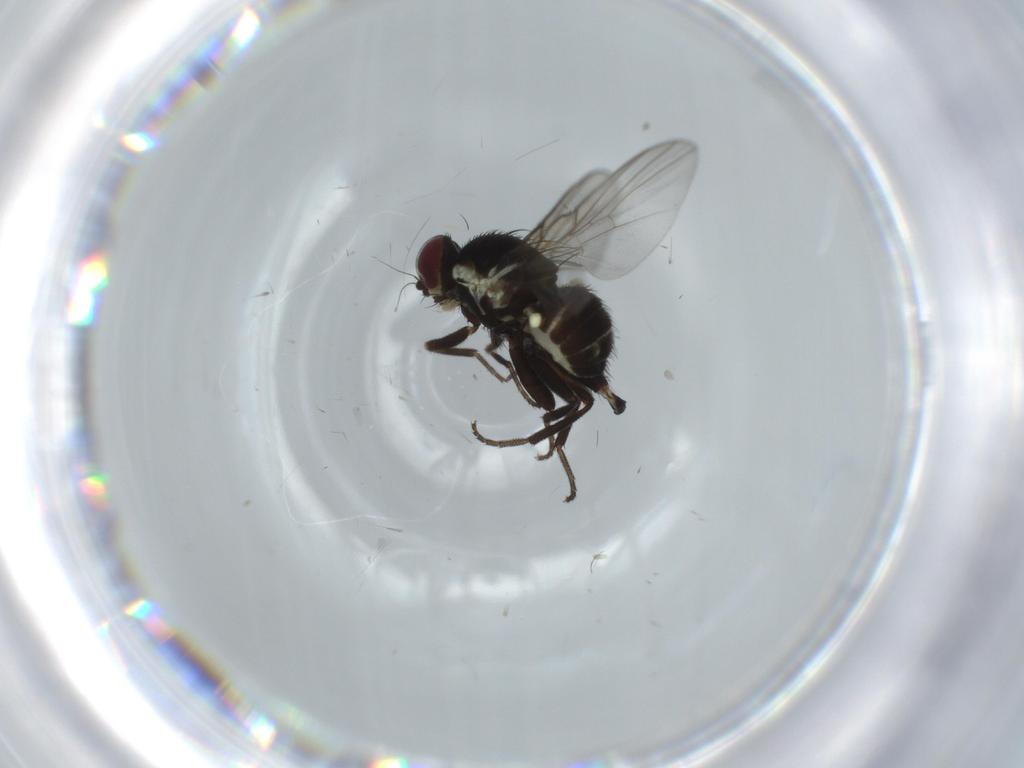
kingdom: Animalia
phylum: Arthropoda
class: Insecta
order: Diptera
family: Agromyzidae
